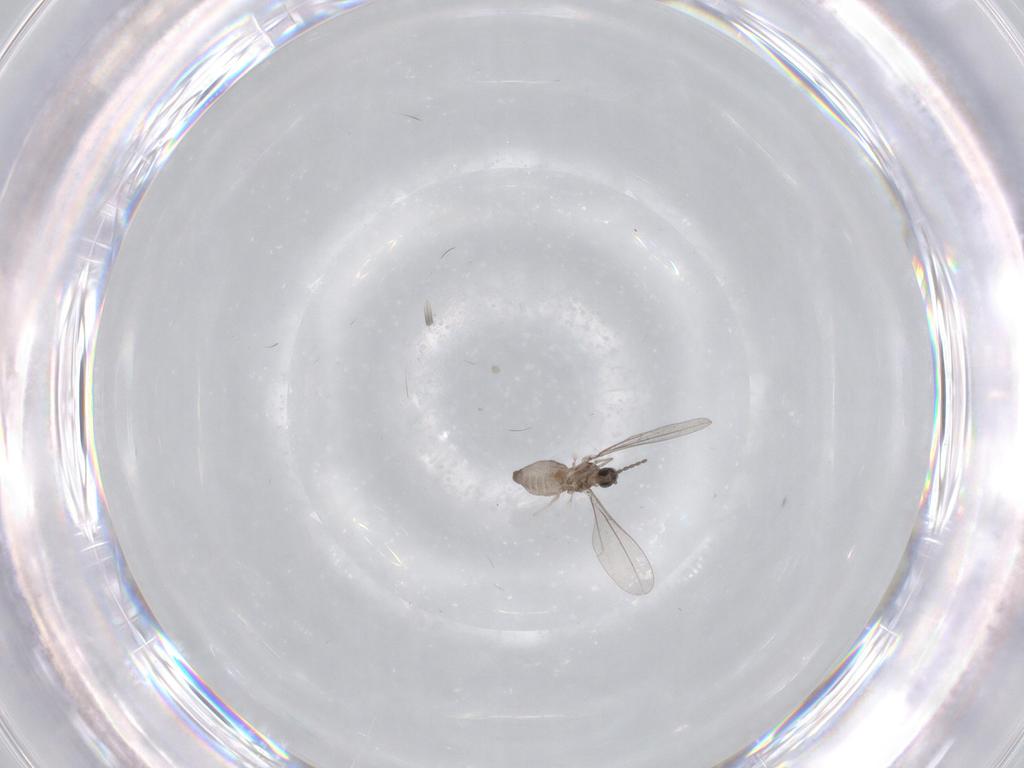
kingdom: Animalia
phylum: Arthropoda
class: Insecta
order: Diptera
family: Cecidomyiidae
